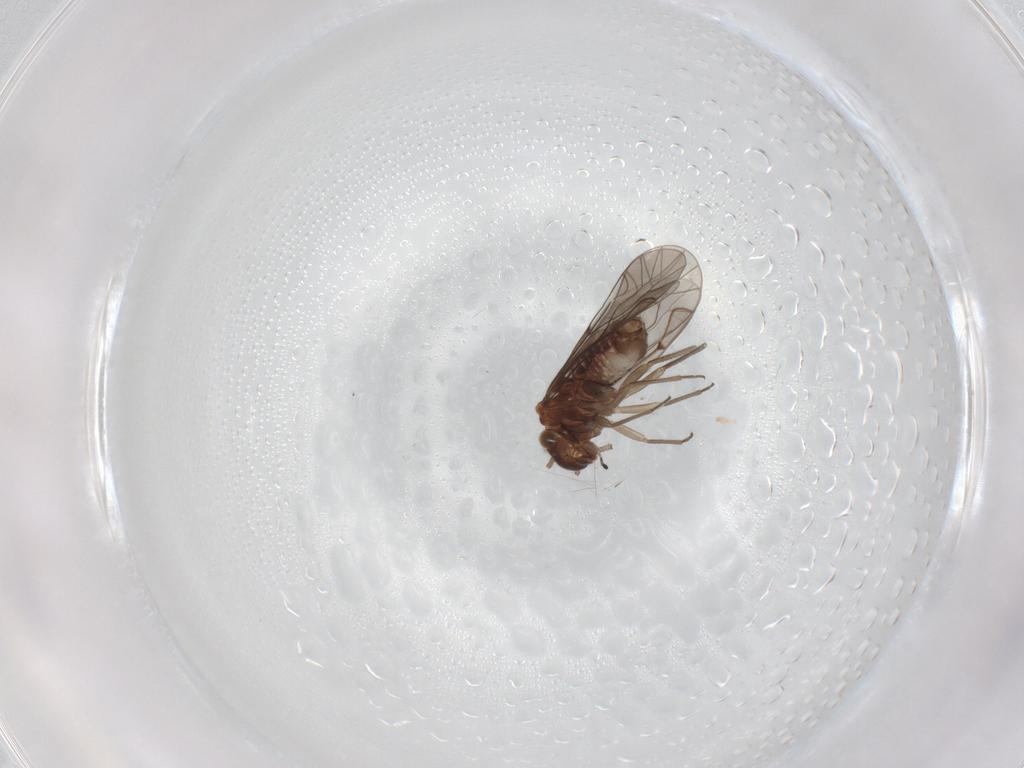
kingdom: Animalia
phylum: Arthropoda
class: Insecta
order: Psocodea
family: Lachesillidae
